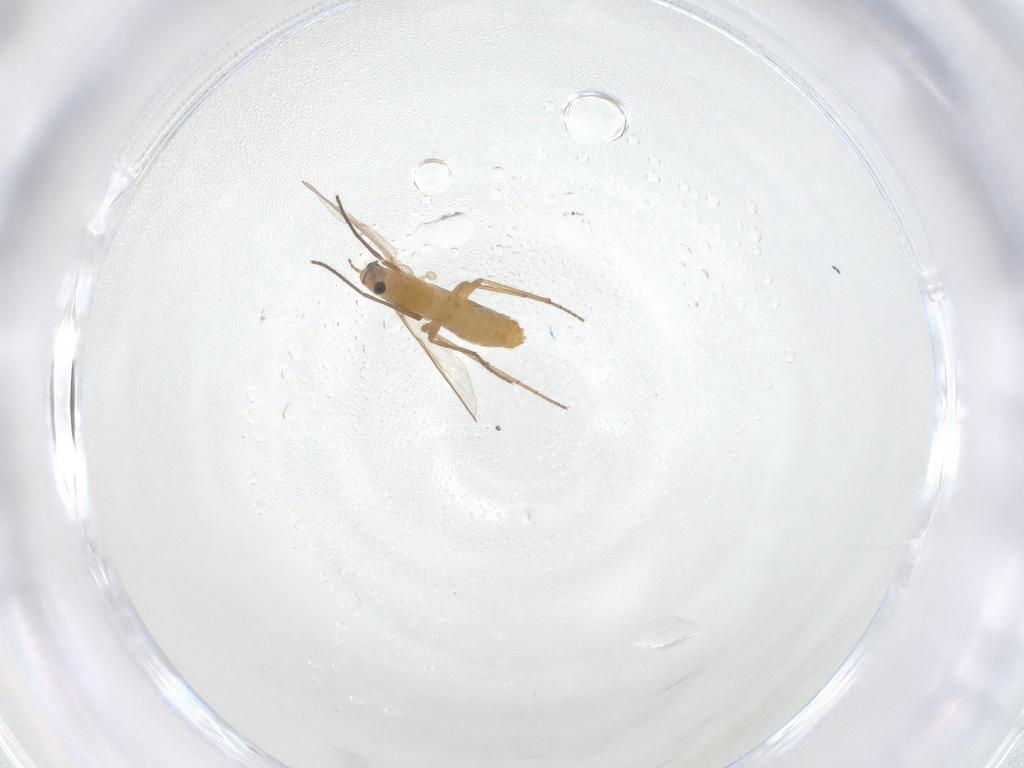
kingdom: Animalia
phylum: Arthropoda
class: Insecta
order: Diptera
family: Chironomidae
